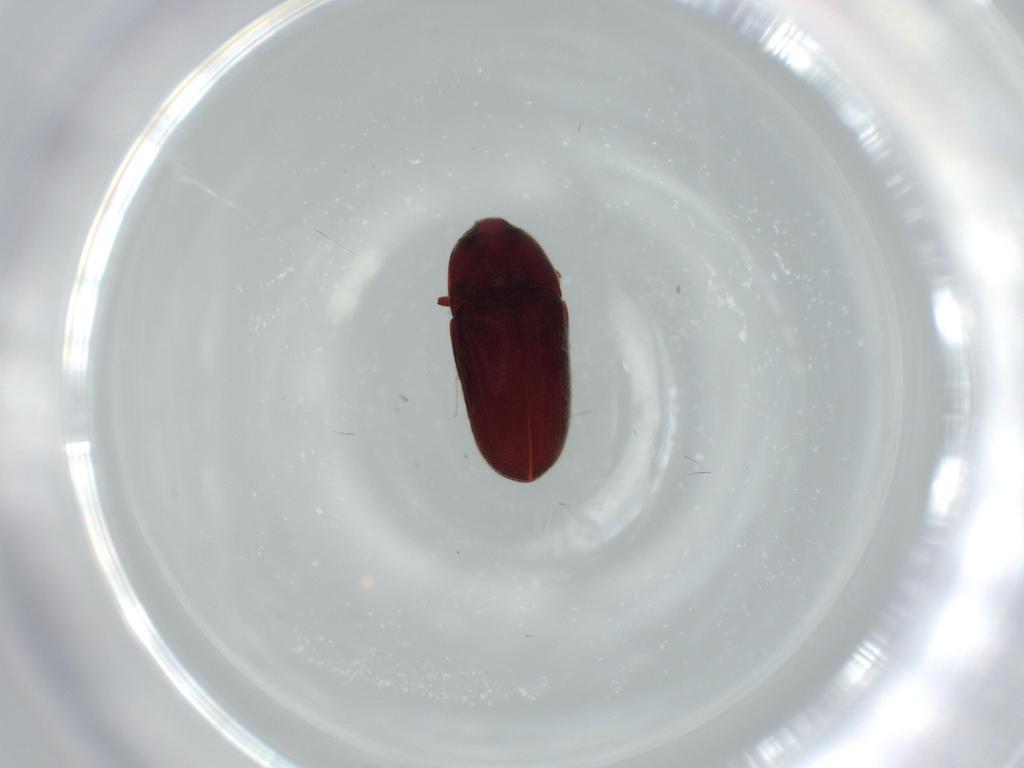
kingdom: Animalia
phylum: Arthropoda
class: Insecta
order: Coleoptera
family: Throscidae
